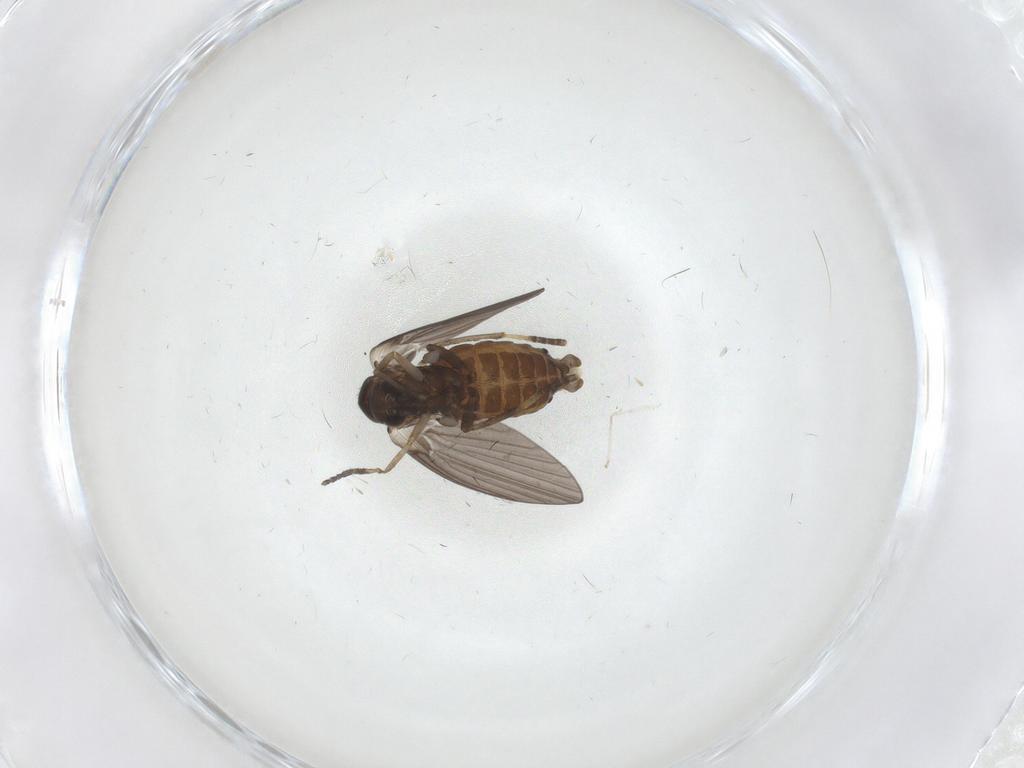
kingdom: Animalia
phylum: Arthropoda
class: Insecta
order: Diptera
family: Psychodidae
